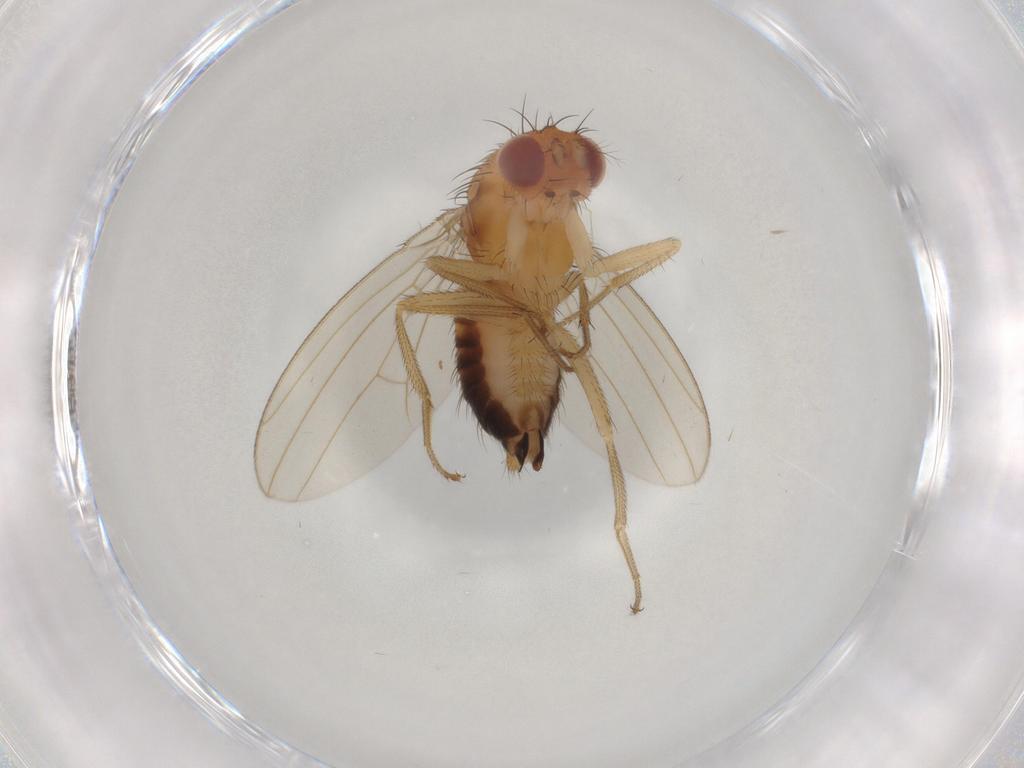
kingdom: Animalia
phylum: Arthropoda
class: Insecta
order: Diptera
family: Drosophilidae
